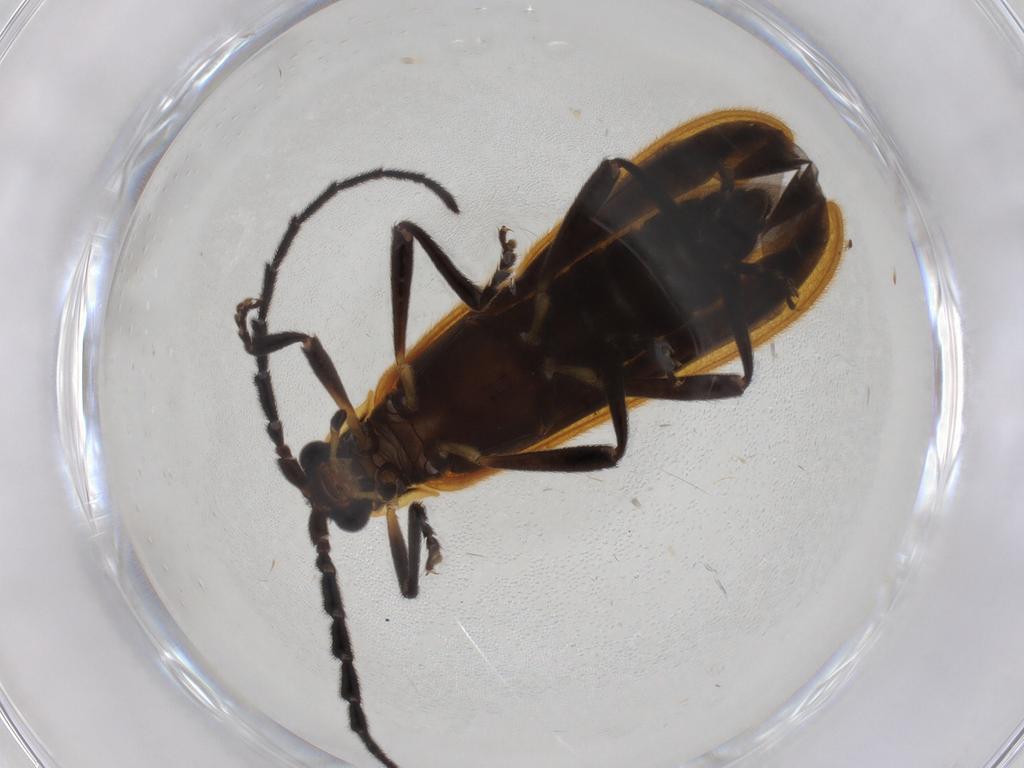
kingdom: Animalia
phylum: Arthropoda
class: Insecta
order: Coleoptera
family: Lycidae
